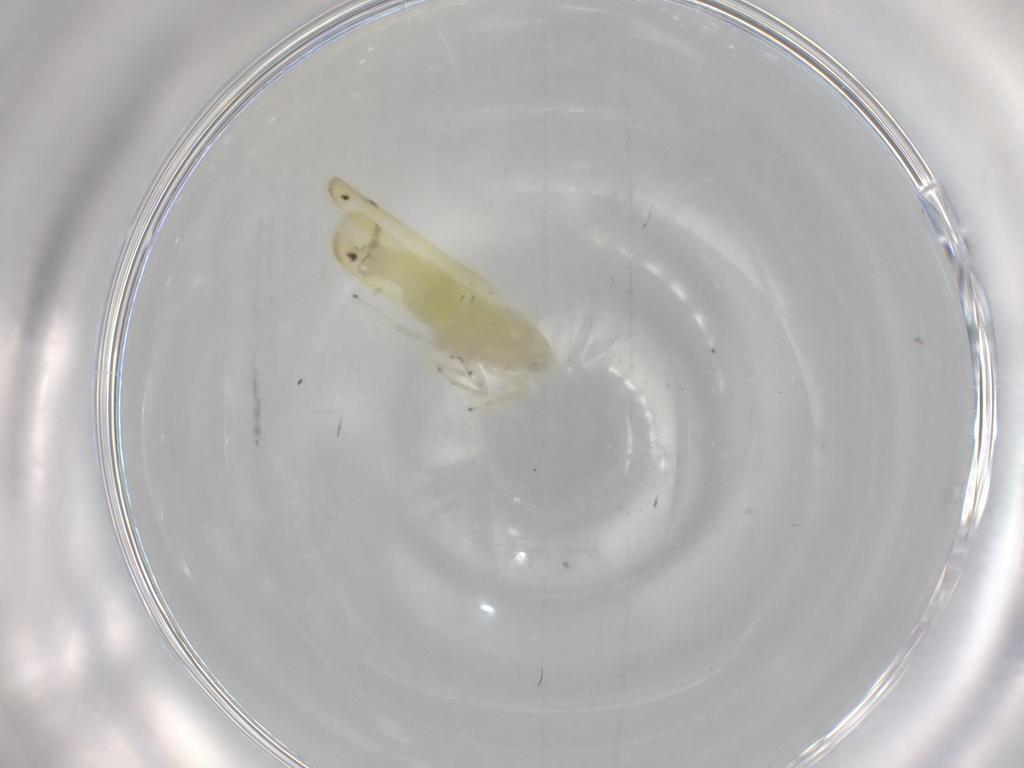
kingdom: Animalia
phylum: Arthropoda
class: Insecta
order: Hemiptera
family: Cicadellidae
